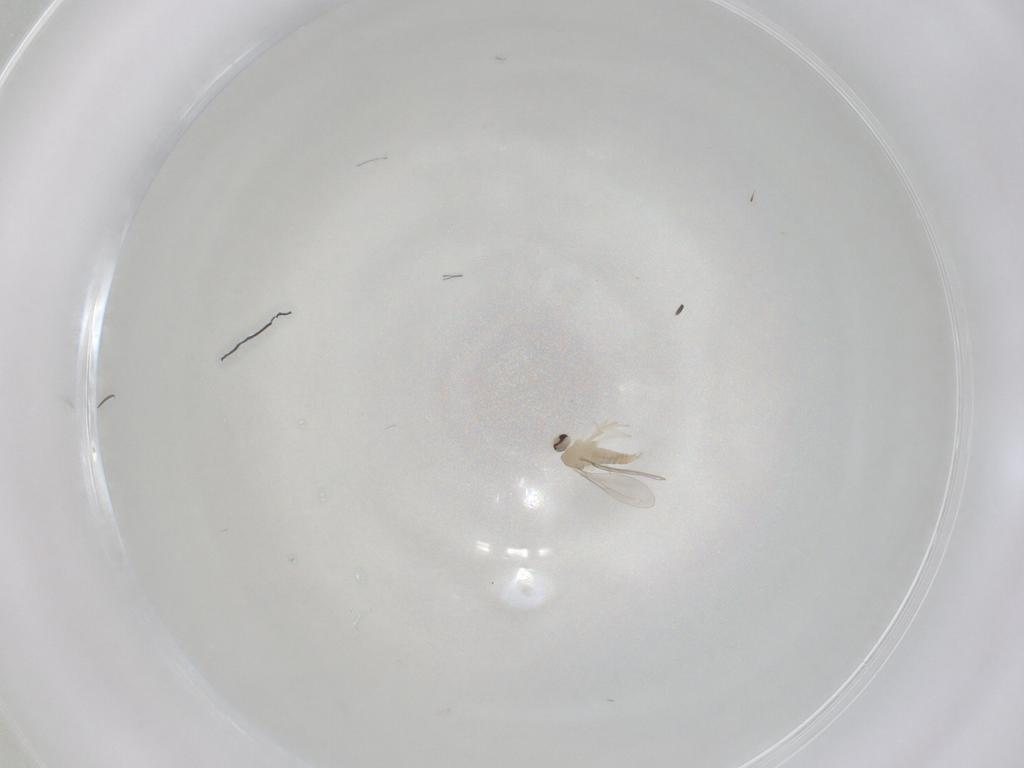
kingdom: Animalia
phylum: Arthropoda
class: Insecta
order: Diptera
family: Cecidomyiidae
